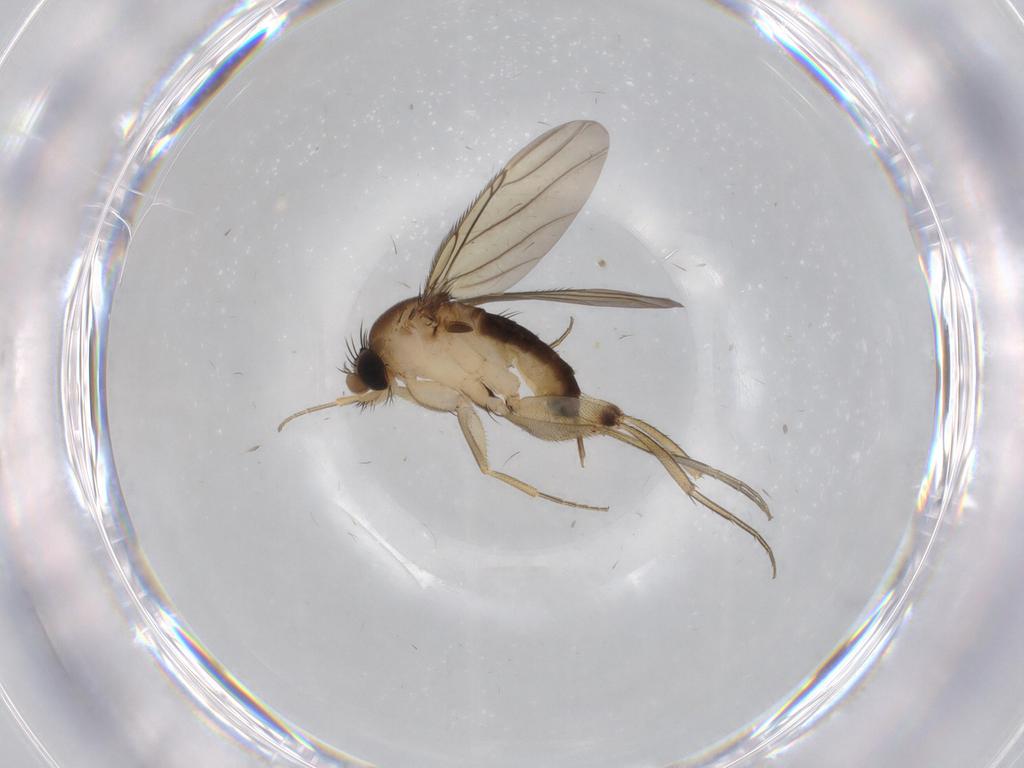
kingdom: Animalia
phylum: Arthropoda
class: Insecta
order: Diptera
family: Phoridae
